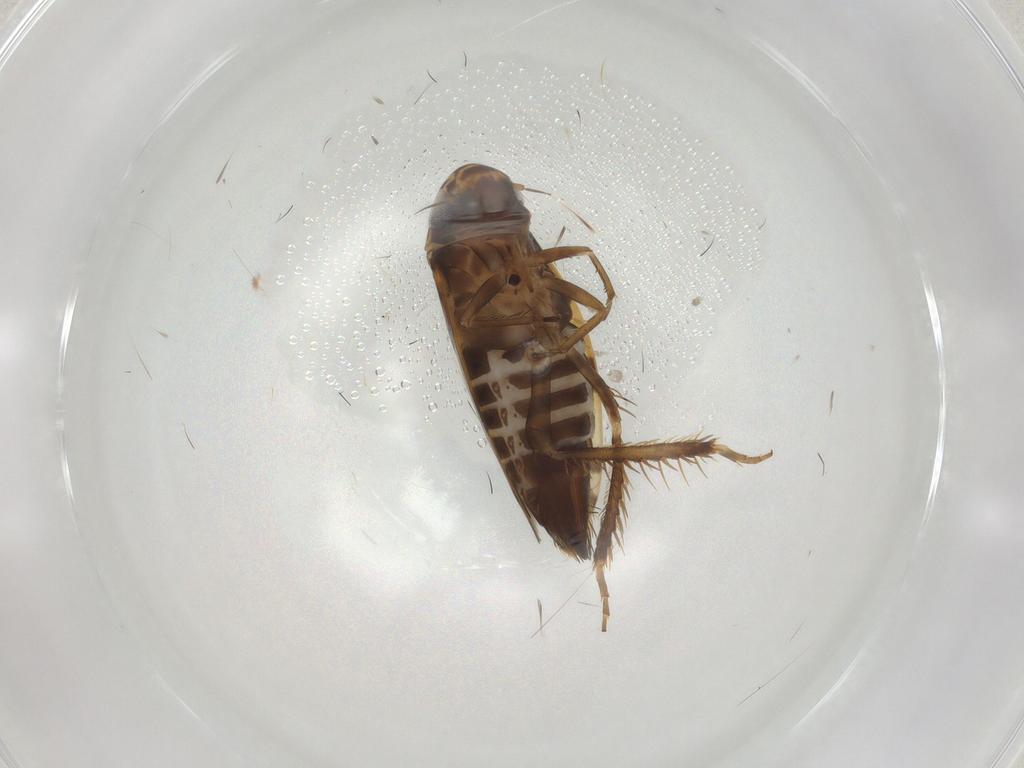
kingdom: Animalia
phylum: Arthropoda
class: Insecta
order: Hemiptera
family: Cicadellidae
